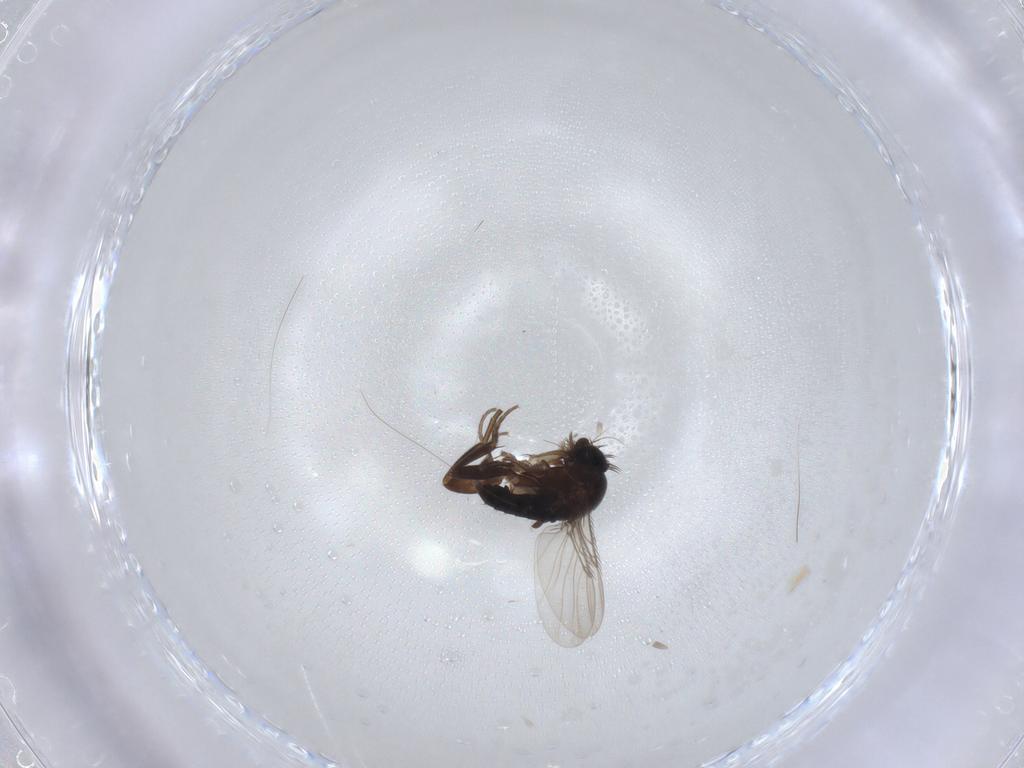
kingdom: Animalia
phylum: Arthropoda
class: Insecta
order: Diptera
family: Phoridae
